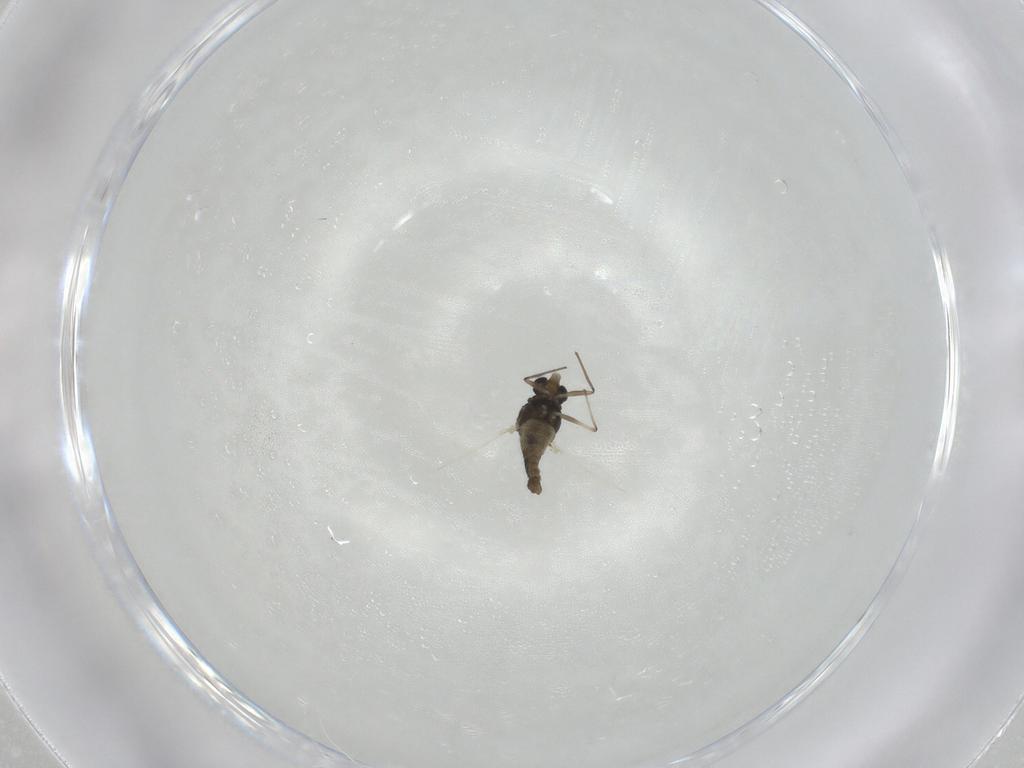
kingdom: Animalia
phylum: Arthropoda
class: Insecta
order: Diptera
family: Chironomidae
